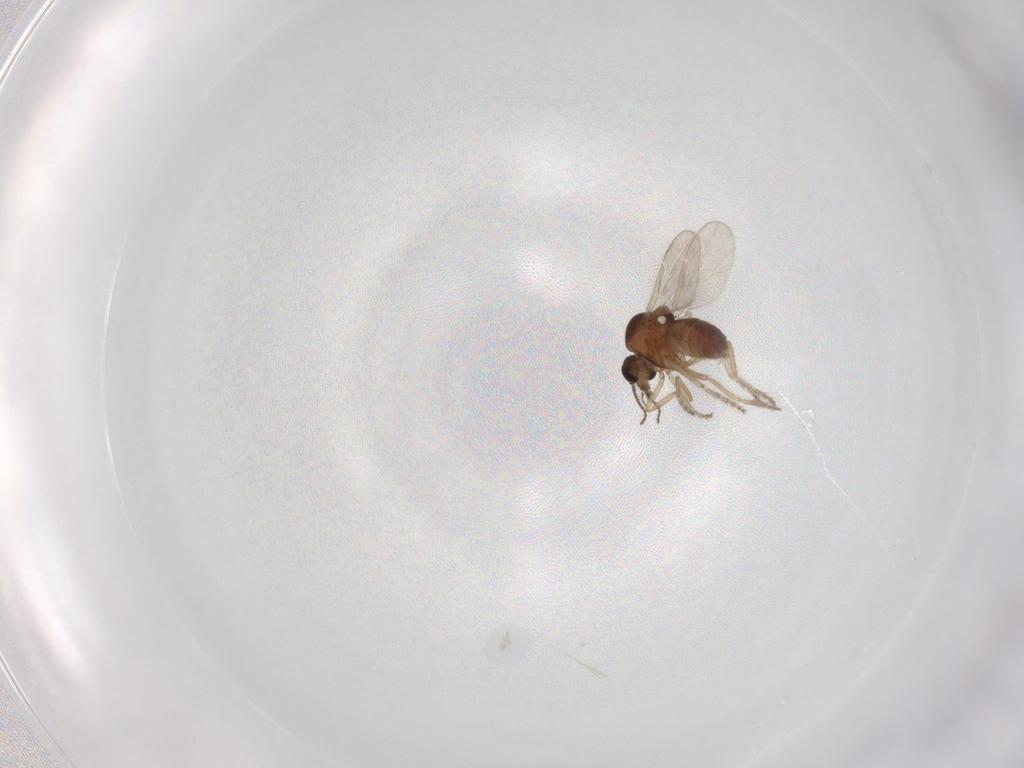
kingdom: Animalia
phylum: Arthropoda
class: Insecta
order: Diptera
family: Ceratopogonidae
